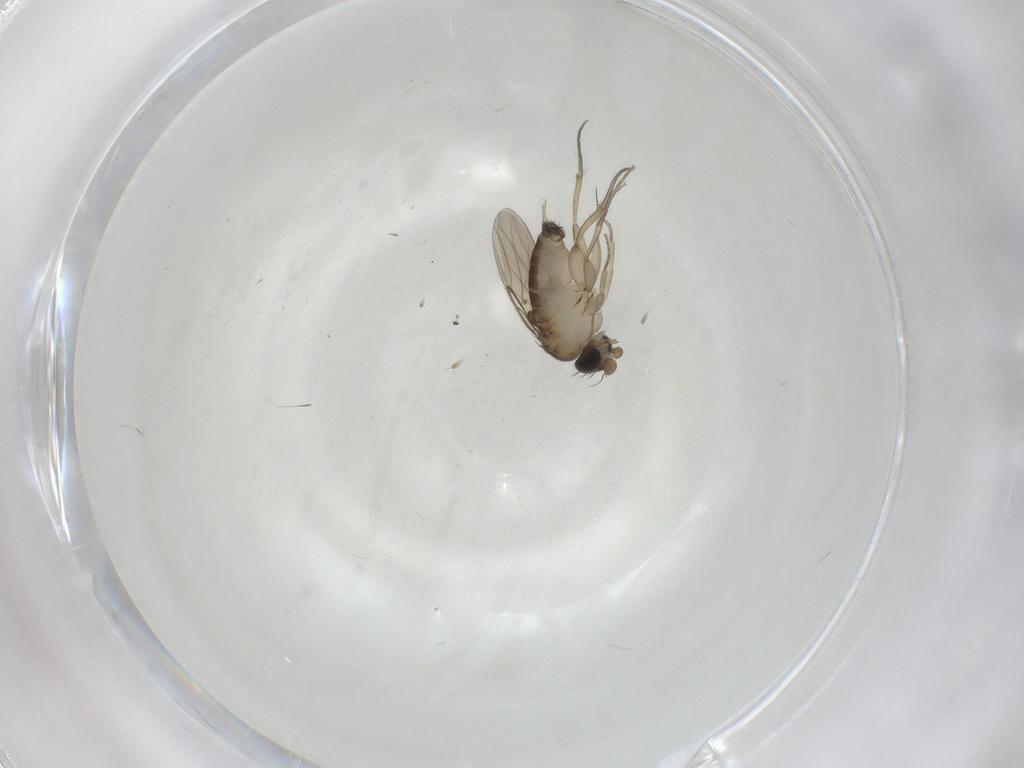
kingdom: Animalia
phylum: Arthropoda
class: Insecta
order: Diptera
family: Phoridae
